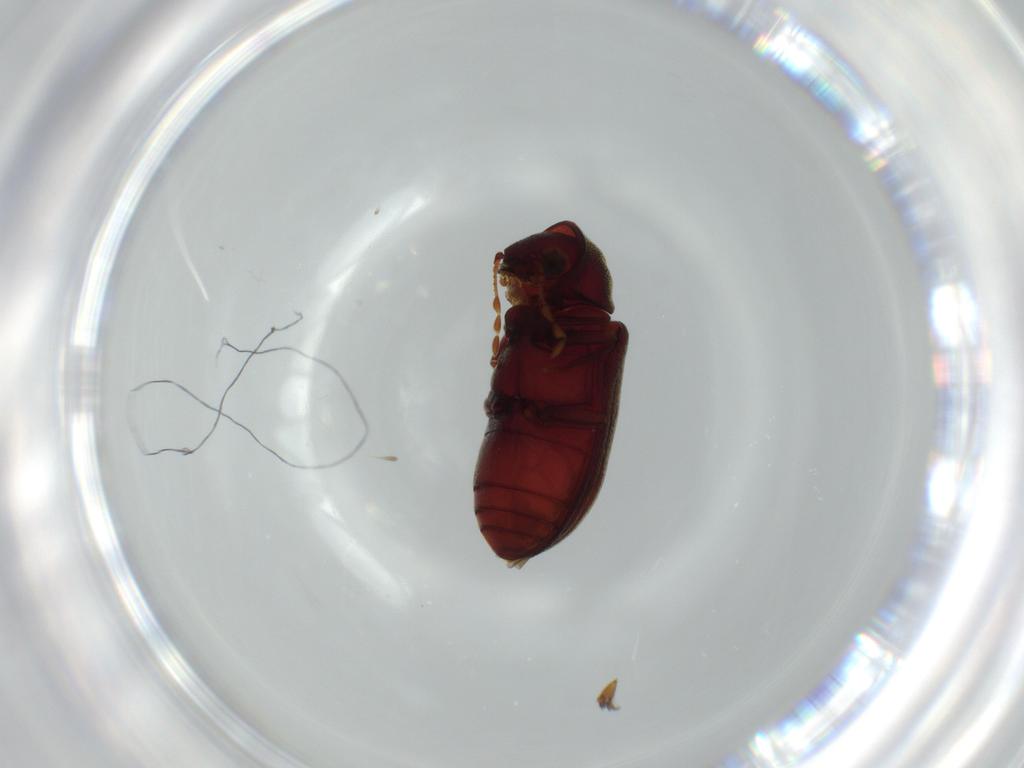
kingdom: Animalia
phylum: Arthropoda
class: Insecta
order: Coleoptera
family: Ptinidae
